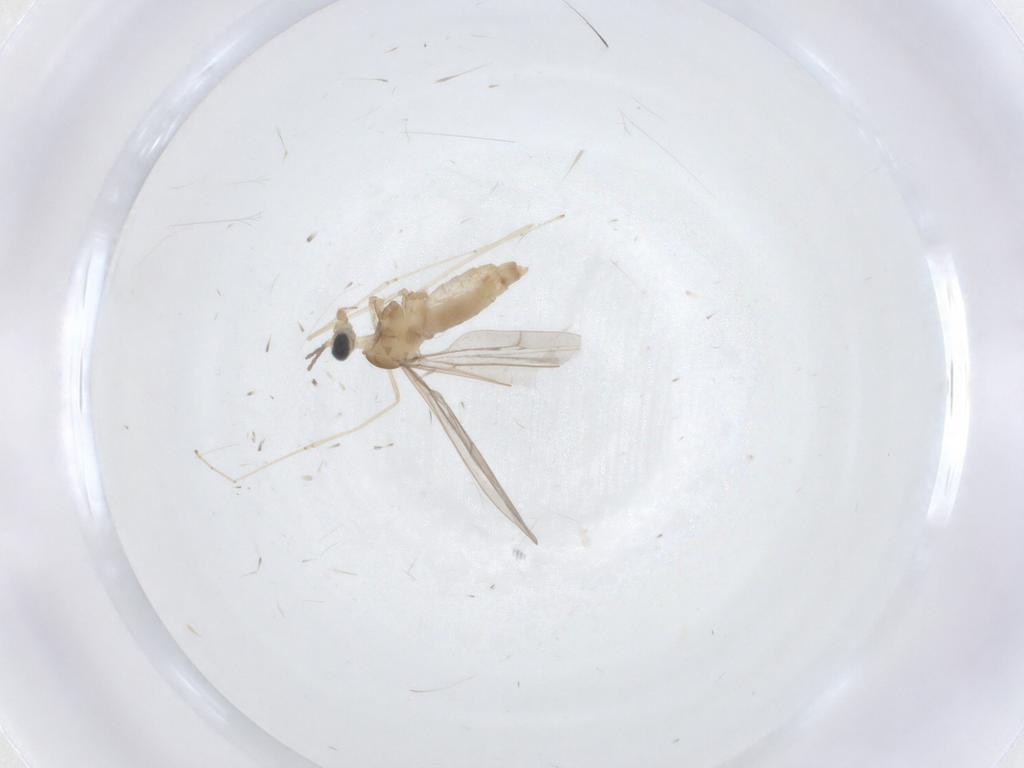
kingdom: Animalia
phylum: Arthropoda
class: Insecta
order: Diptera
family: Cecidomyiidae
